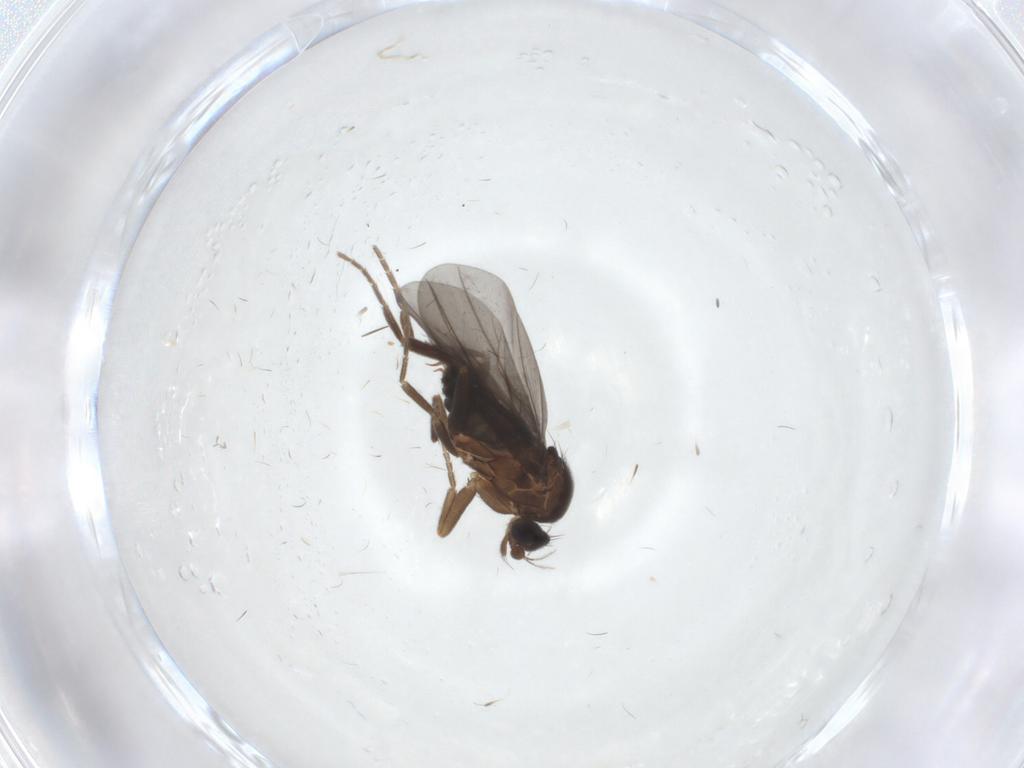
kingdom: Animalia
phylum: Arthropoda
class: Insecta
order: Diptera
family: Phoridae
